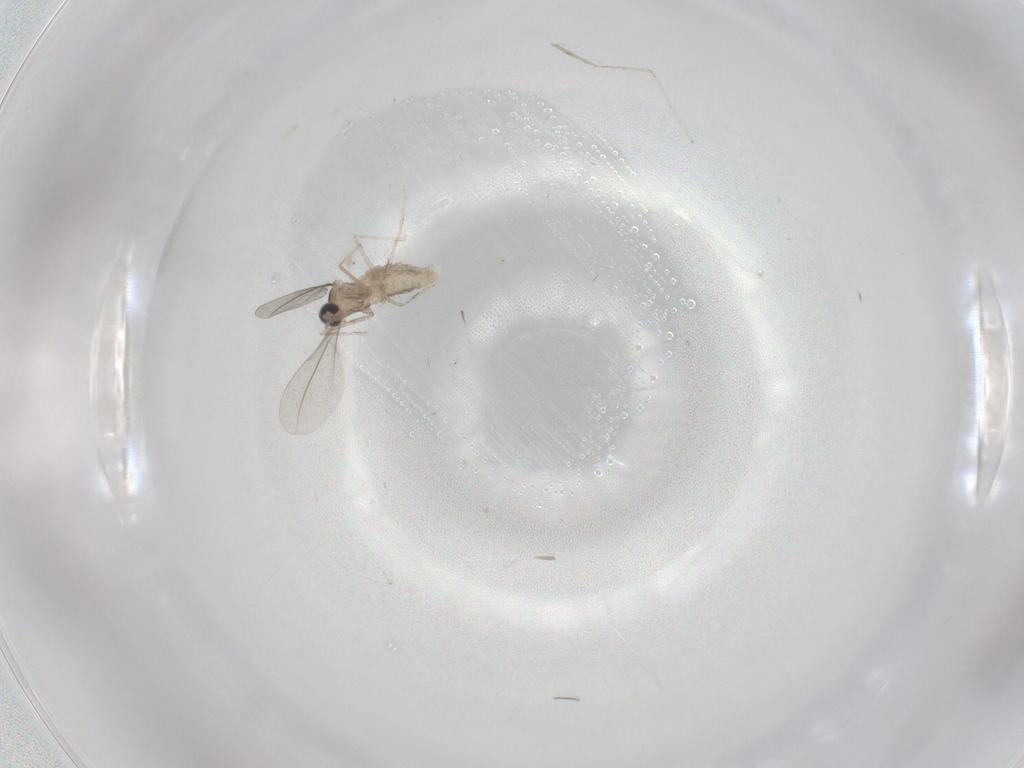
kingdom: Animalia
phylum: Arthropoda
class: Insecta
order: Diptera
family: Cecidomyiidae
